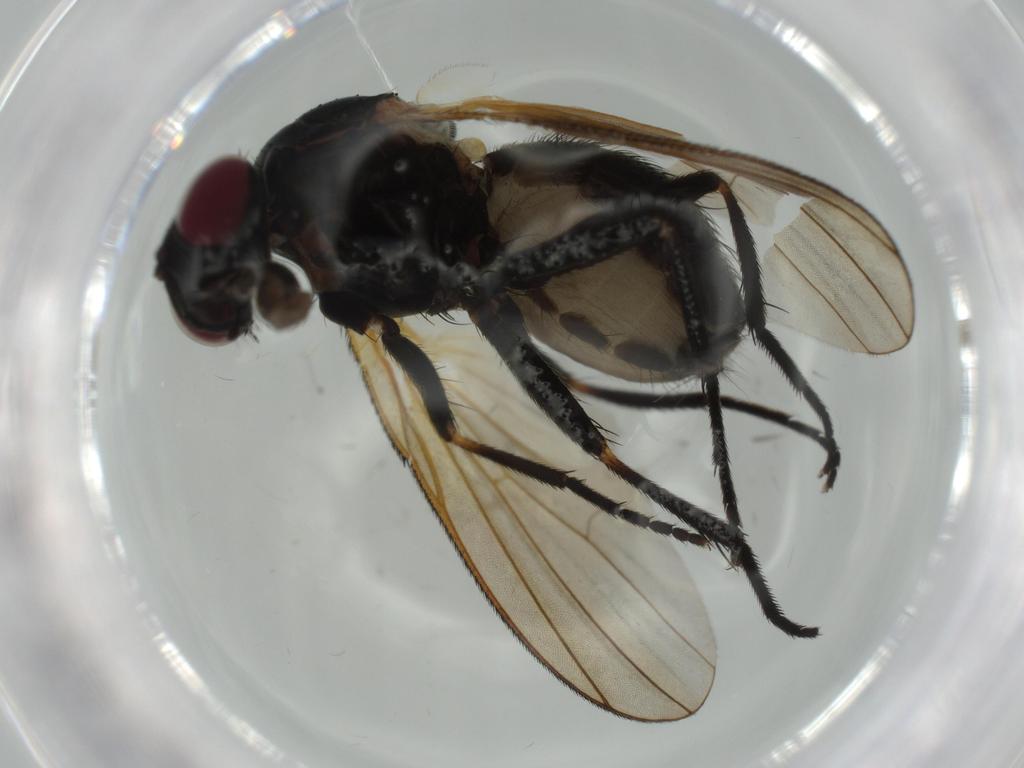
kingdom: Animalia
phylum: Arthropoda
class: Insecta
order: Diptera
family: Cecidomyiidae
